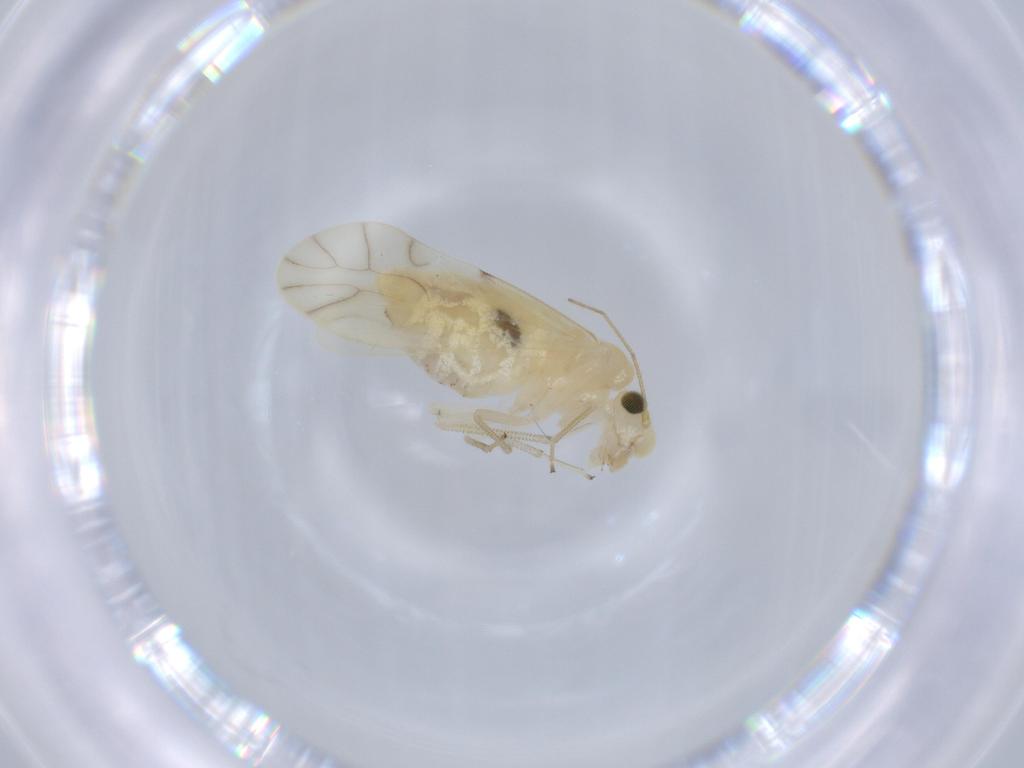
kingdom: Animalia
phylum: Arthropoda
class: Insecta
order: Psocodea
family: Caeciliusidae
